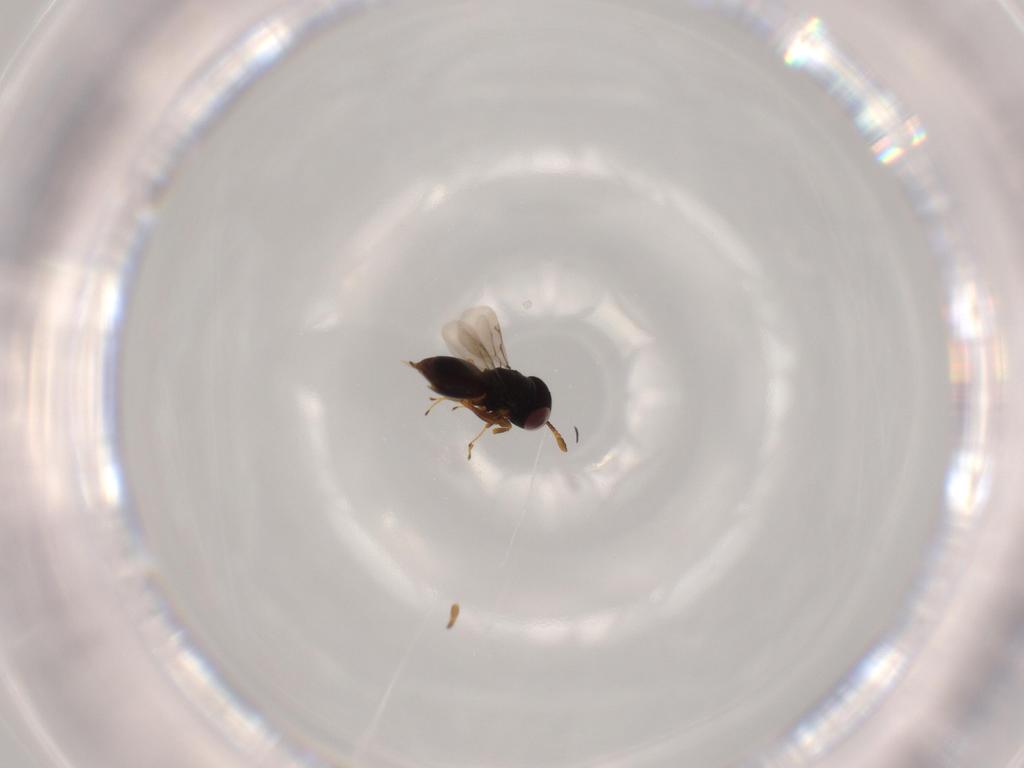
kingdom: Animalia
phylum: Arthropoda
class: Insecta
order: Hymenoptera
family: Eunotidae
